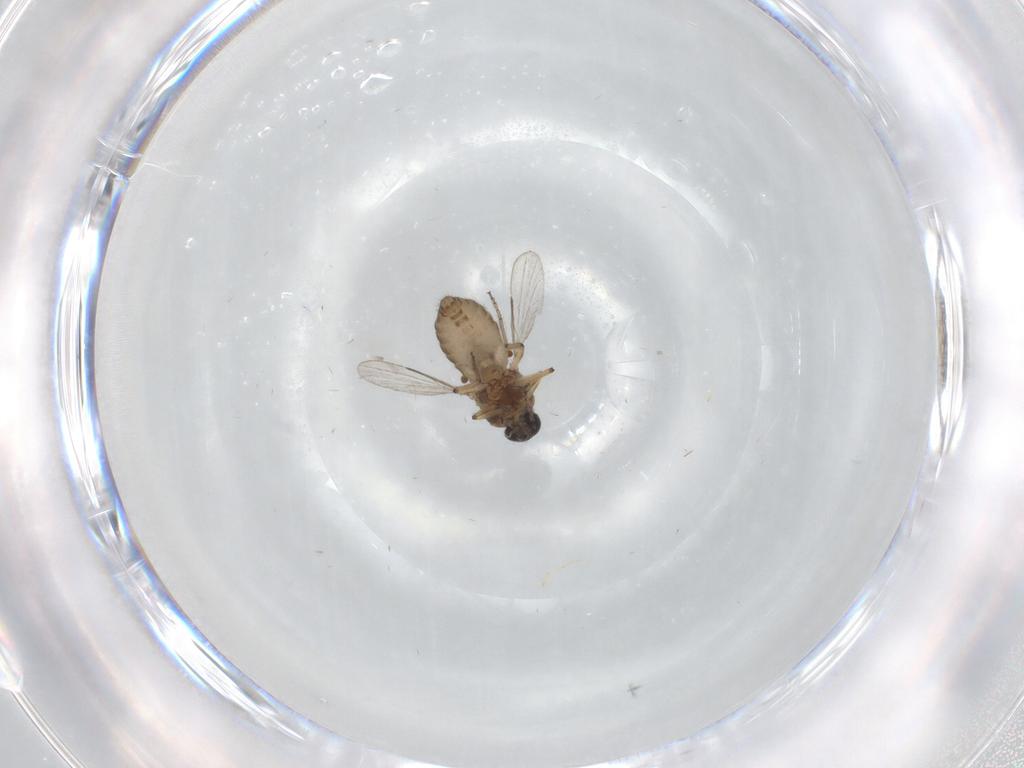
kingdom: Animalia
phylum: Arthropoda
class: Insecta
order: Diptera
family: Ceratopogonidae
